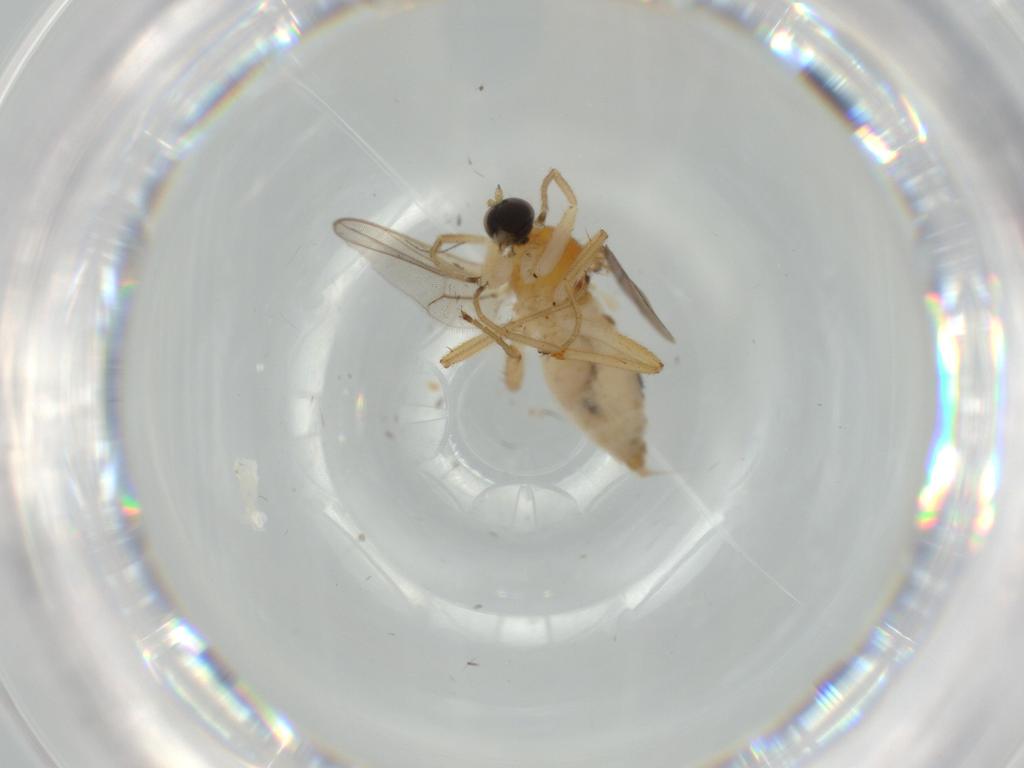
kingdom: Animalia
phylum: Arthropoda
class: Insecta
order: Diptera
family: Hybotidae
